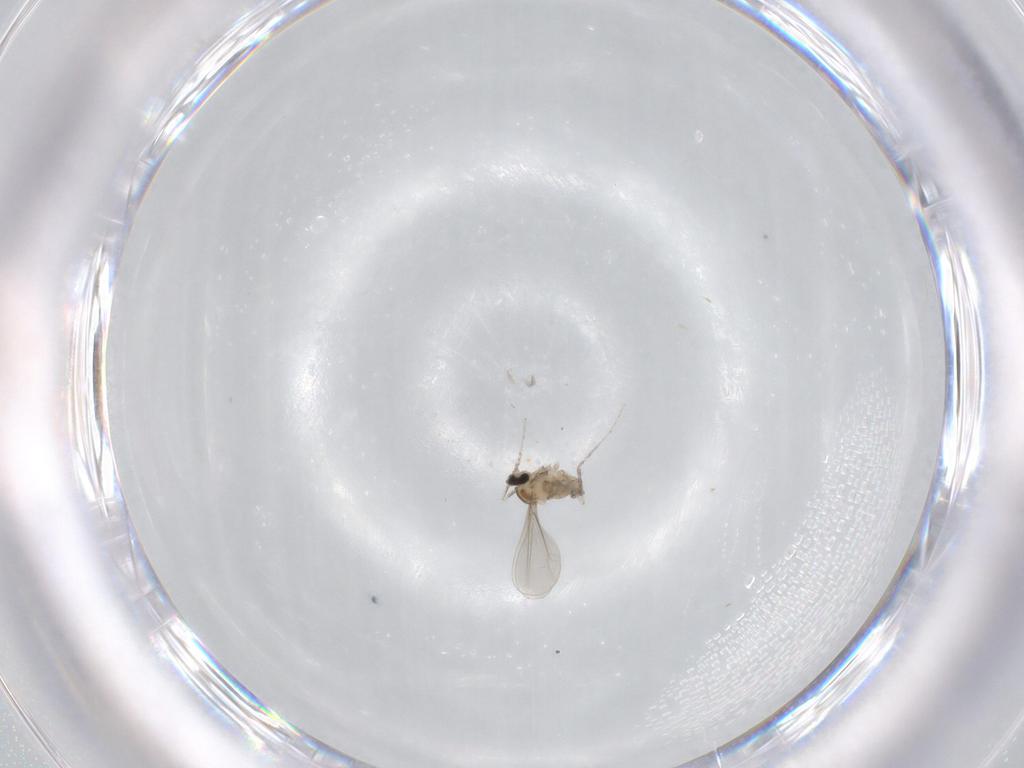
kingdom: Animalia
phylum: Arthropoda
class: Insecta
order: Diptera
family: Cecidomyiidae
